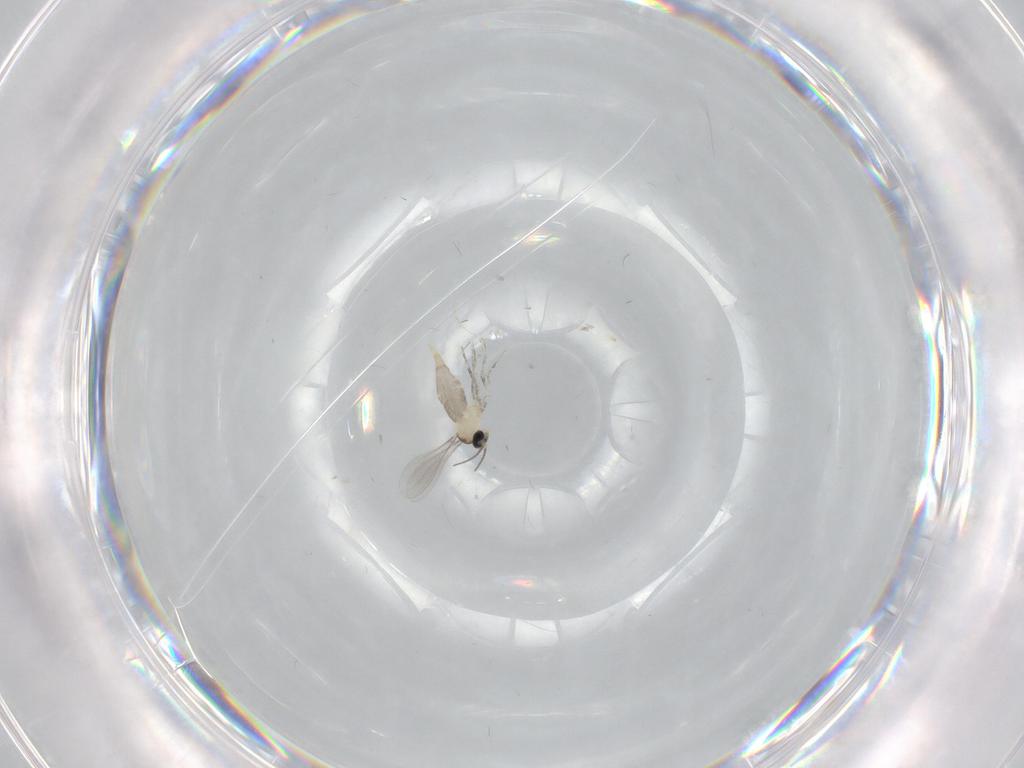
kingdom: Animalia
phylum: Arthropoda
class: Insecta
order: Diptera
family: Cecidomyiidae
